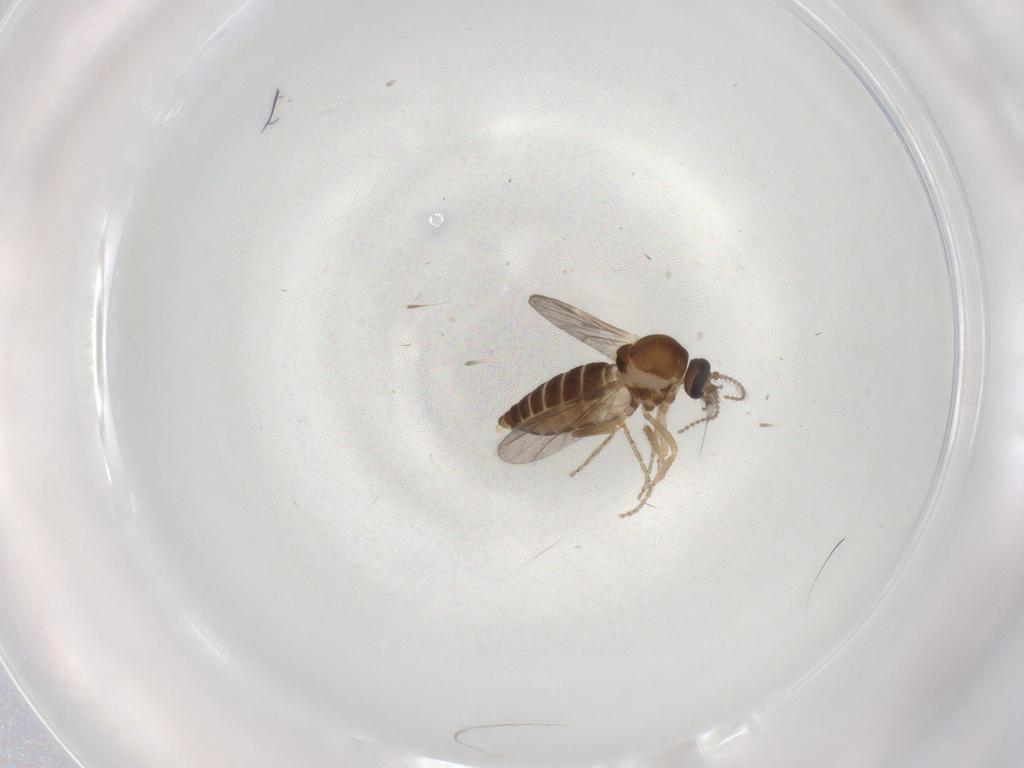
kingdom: Animalia
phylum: Arthropoda
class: Insecta
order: Diptera
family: Ceratopogonidae
